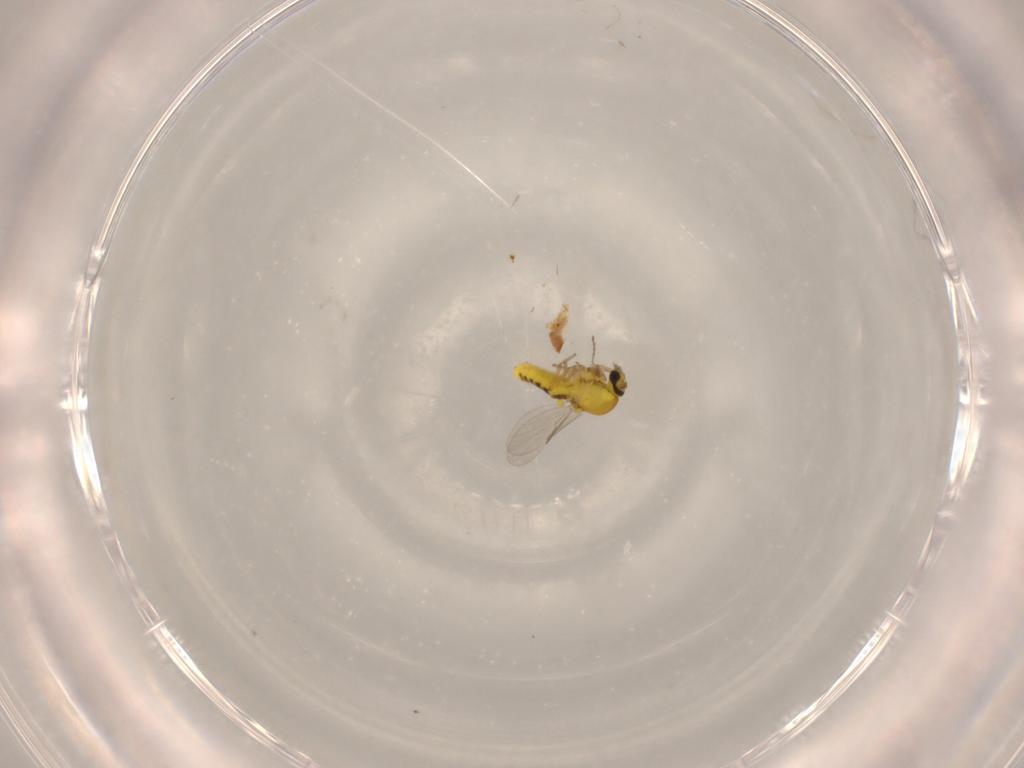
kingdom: Animalia
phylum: Arthropoda
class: Insecta
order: Diptera
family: Ceratopogonidae
